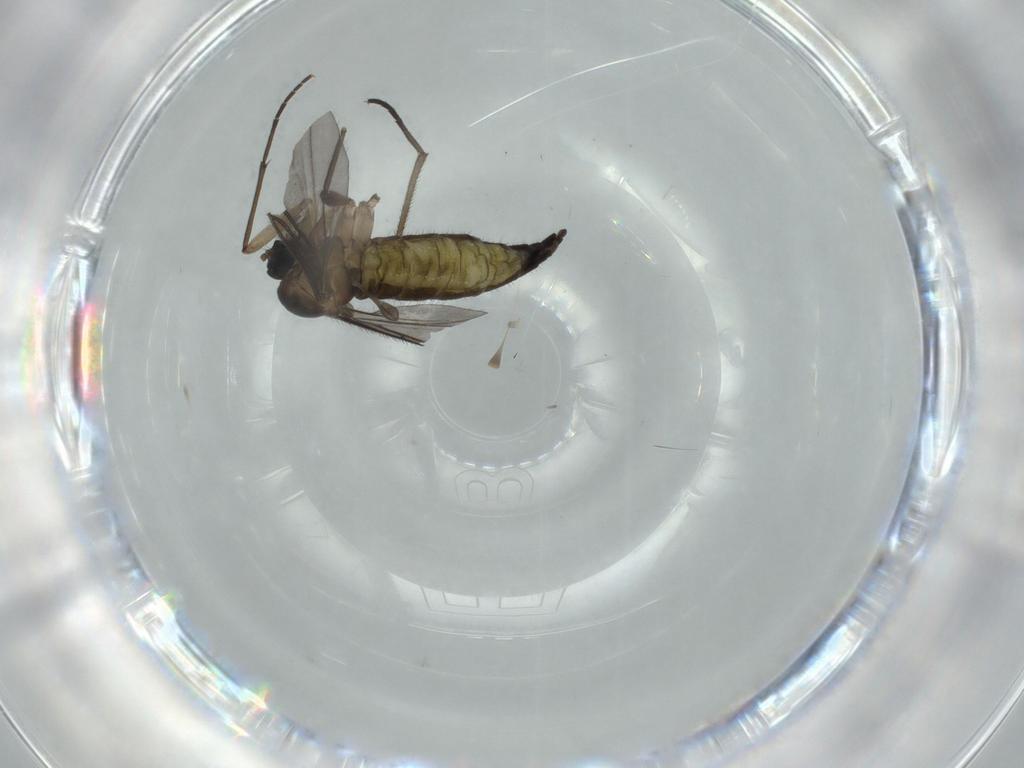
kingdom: Animalia
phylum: Arthropoda
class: Insecta
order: Diptera
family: Sciaridae
